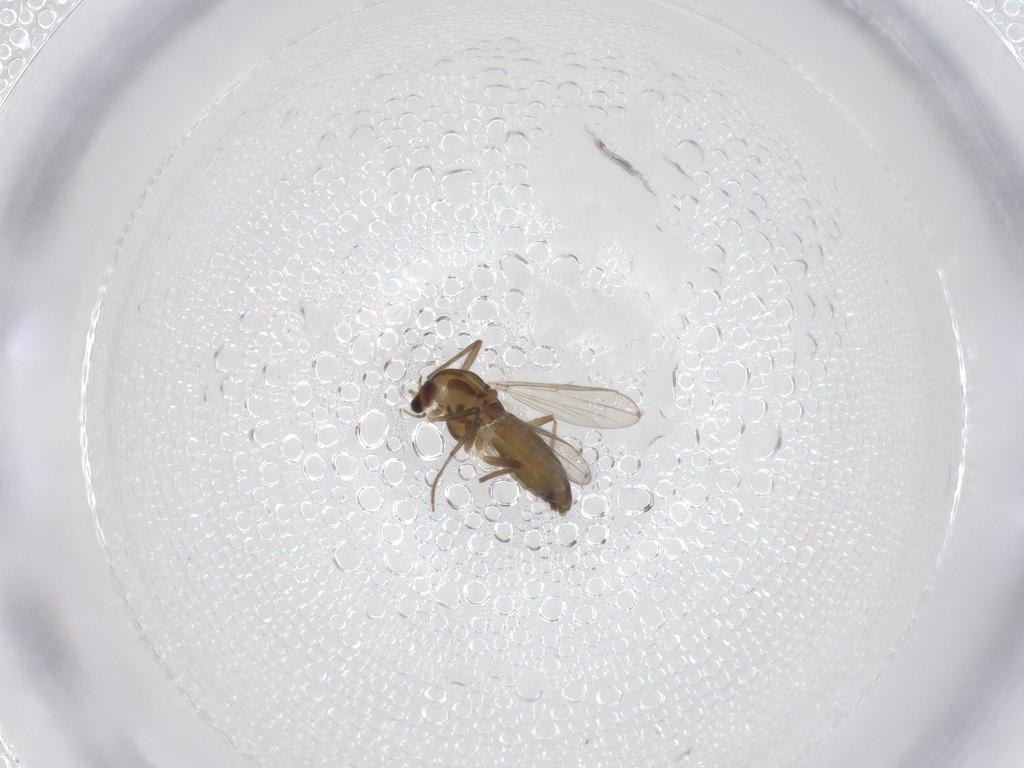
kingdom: Animalia
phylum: Arthropoda
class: Insecta
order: Diptera
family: Chironomidae
